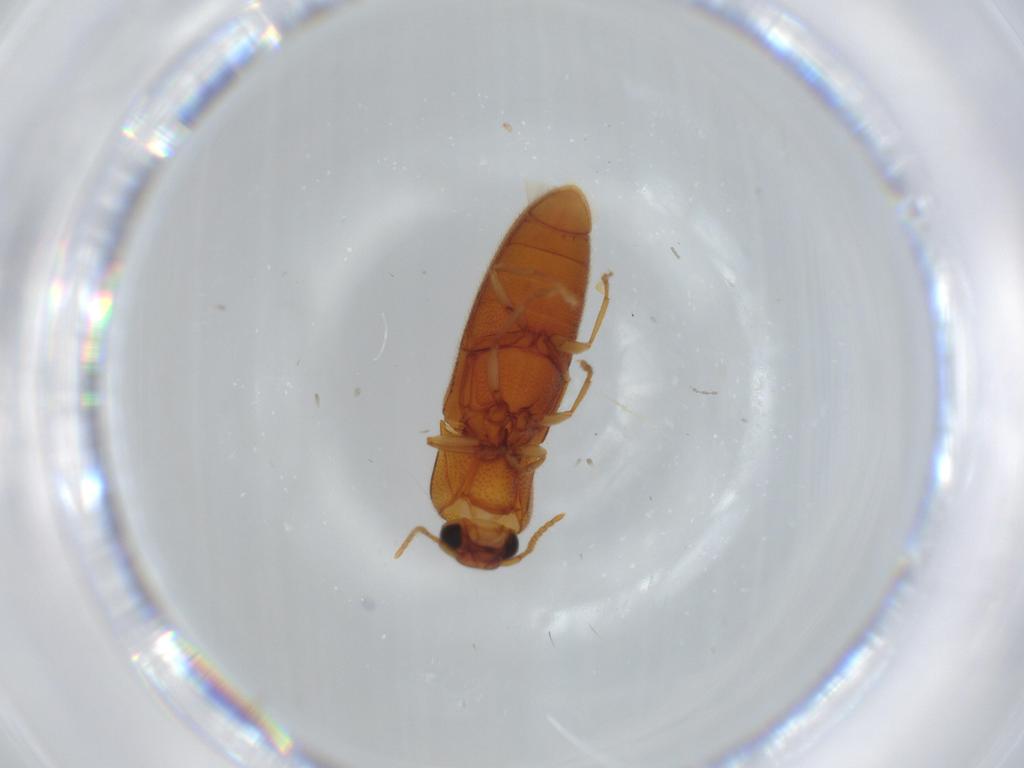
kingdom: Animalia
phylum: Arthropoda
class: Insecta
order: Coleoptera
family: Elateridae
